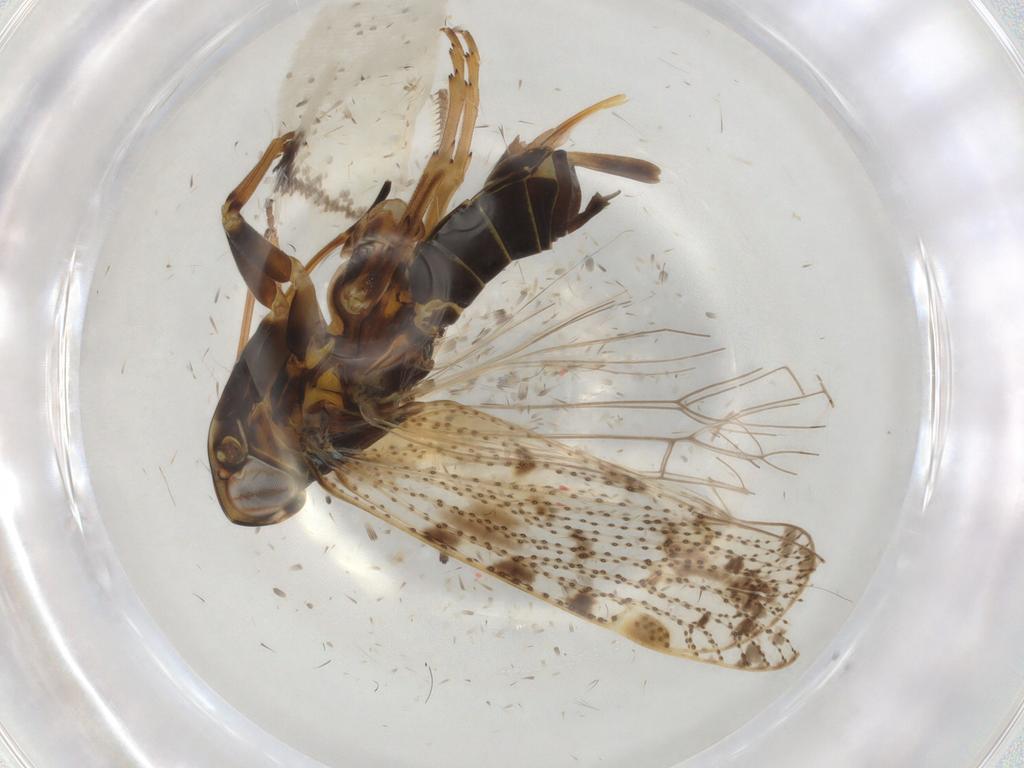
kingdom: Animalia
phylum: Arthropoda
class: Insecta
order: Hemiptera
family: Cixiidae
